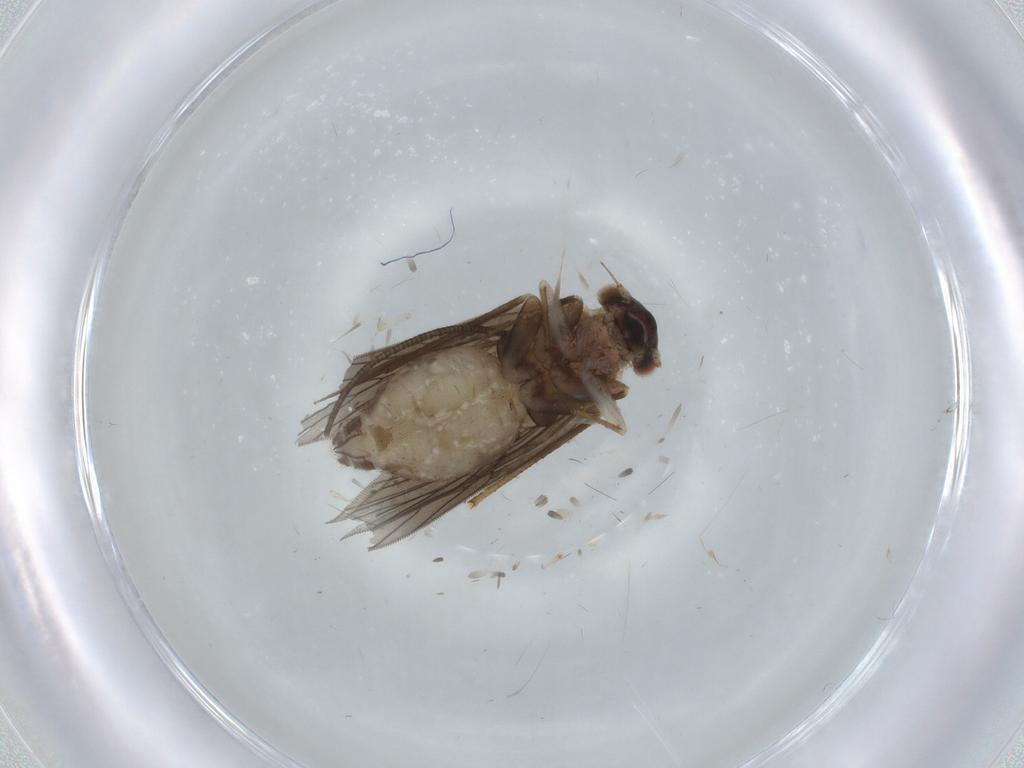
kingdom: Animalia
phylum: Arthropoda
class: Insecta
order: Psocodea
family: Lepidopsocidae
